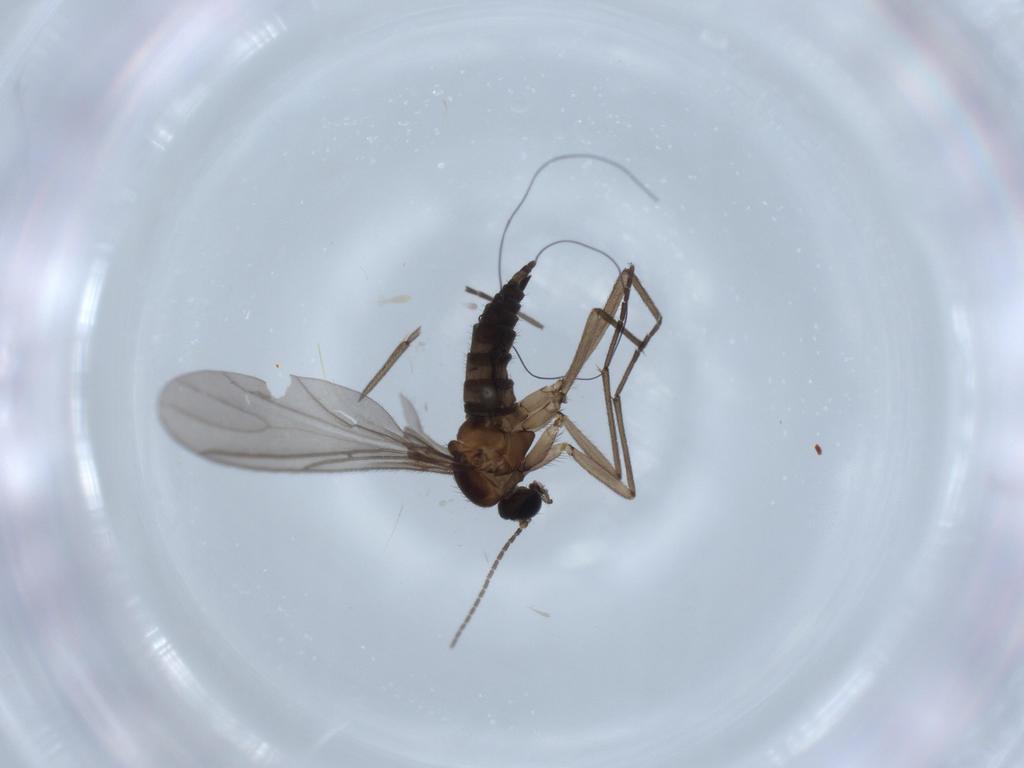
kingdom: Animalia
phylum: Arthropoda
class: Insecta
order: Diptera
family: Sciaridae
